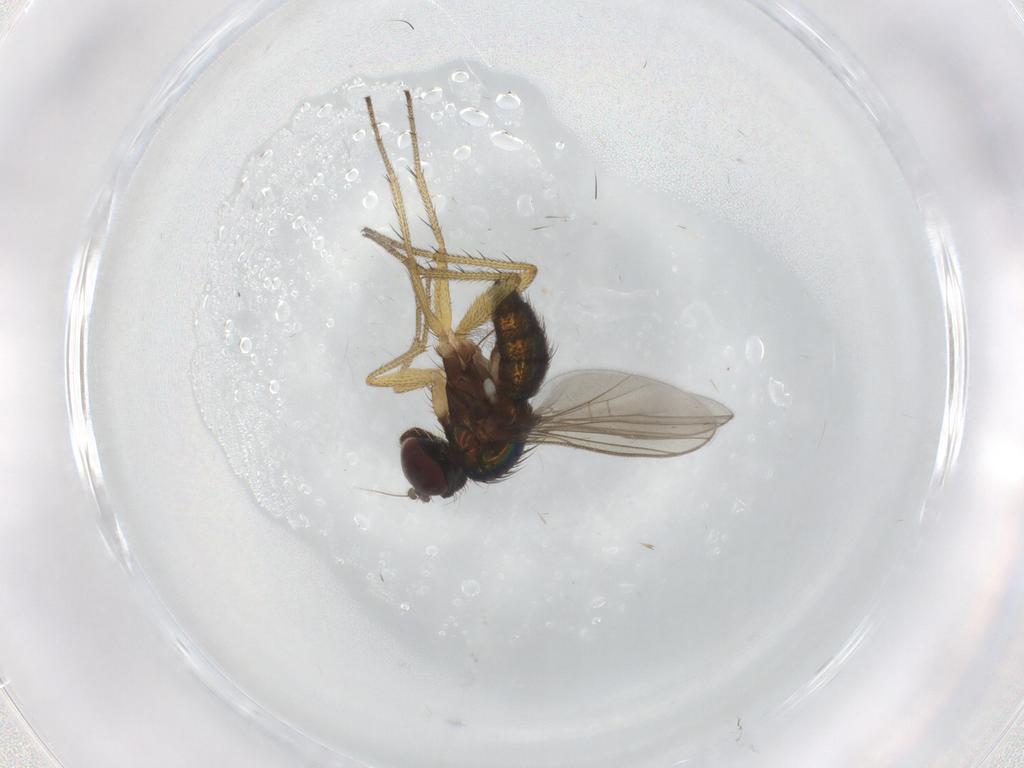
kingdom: Animalia
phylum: Arthropoda
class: Insecta
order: Diptera
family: Dolichopodidae
